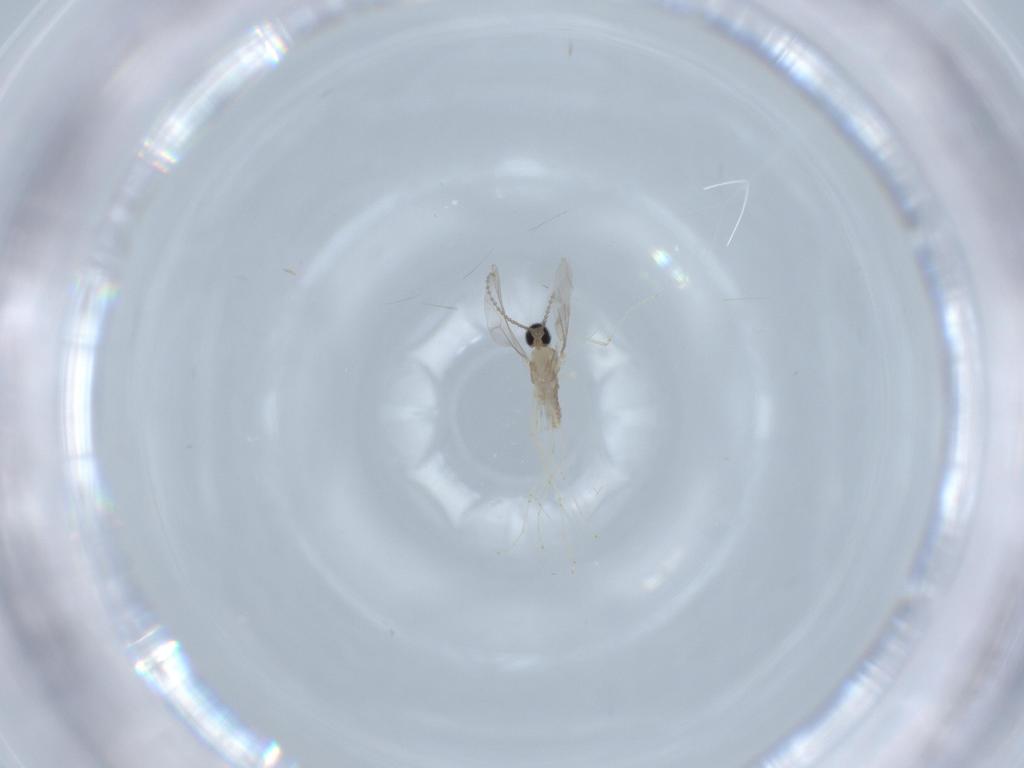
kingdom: Animalia
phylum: Arthropoda
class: Insecta
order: Diptera
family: Cecidomyiidae
